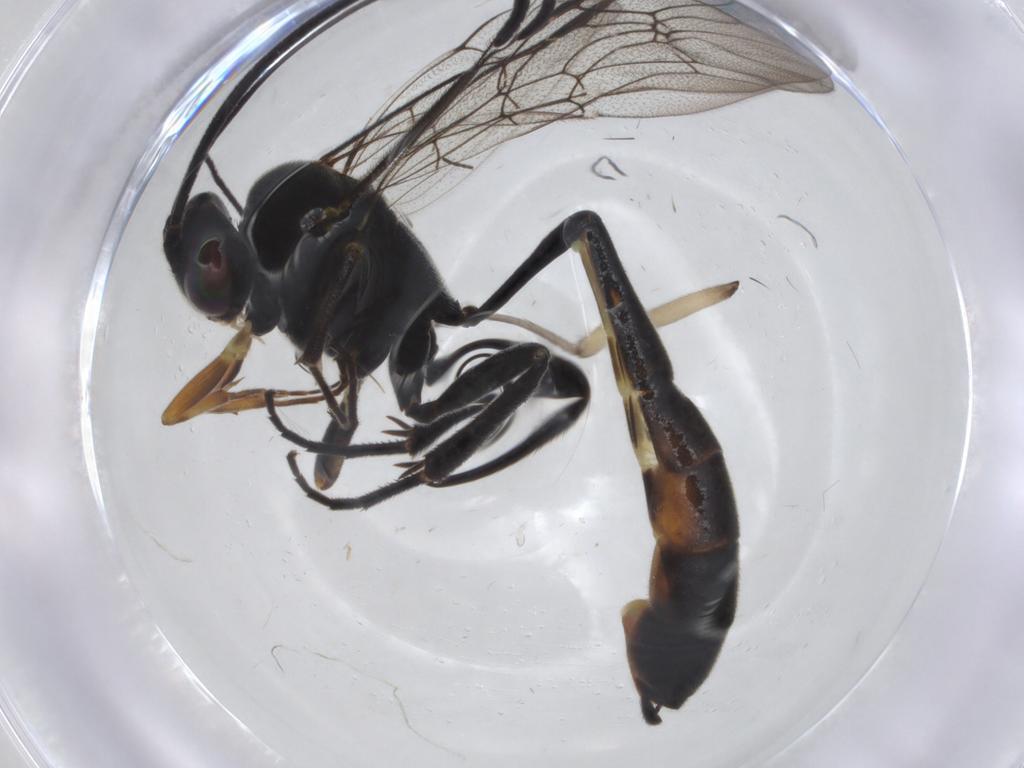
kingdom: Animalia
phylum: Arthropoda
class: Insecta
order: Hymenoptera
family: Ichneumonidae
